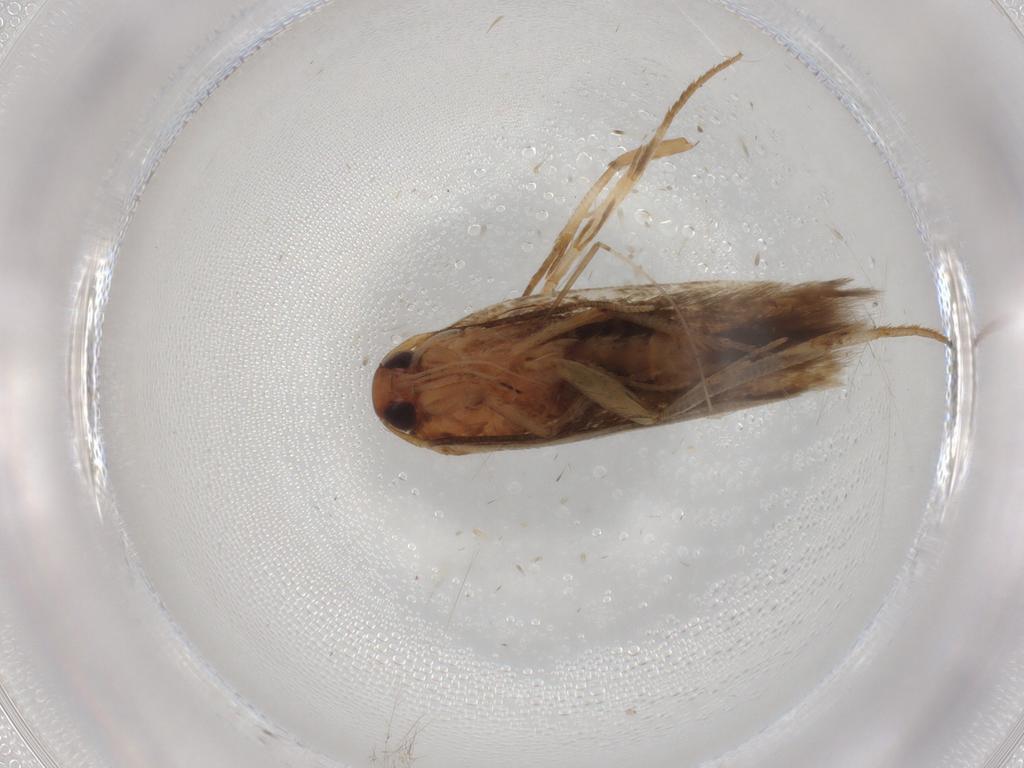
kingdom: Animalia
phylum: Arthropoda
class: Insecta
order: Lepidoptera
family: Cosmopterigidae
